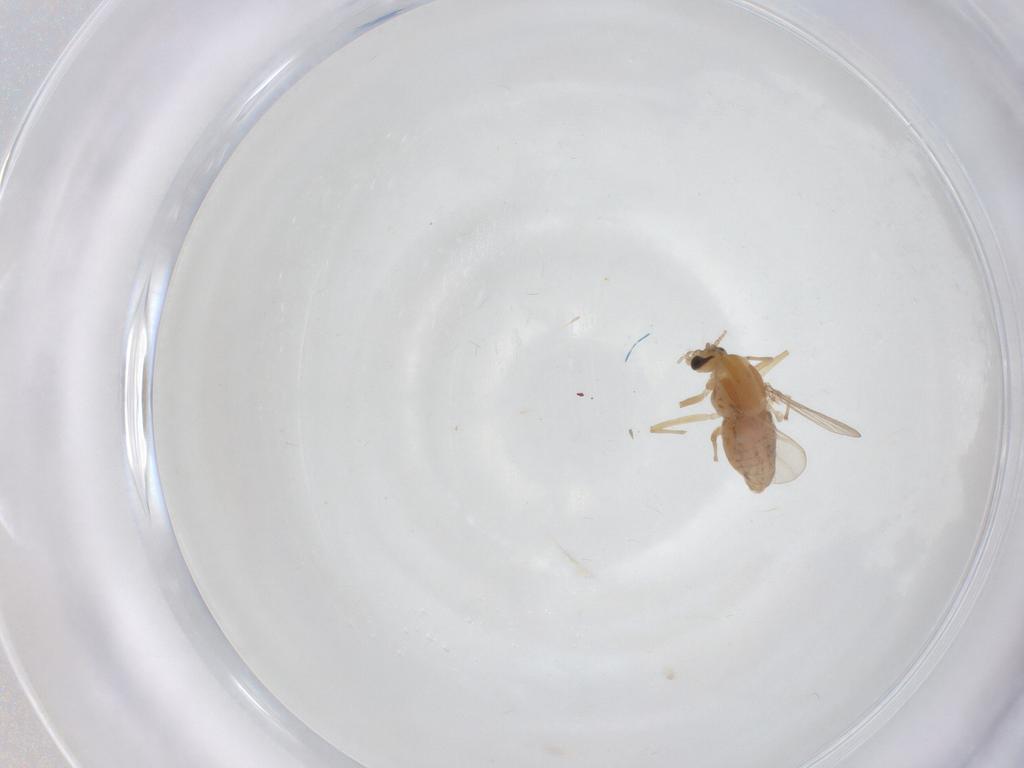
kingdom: Animalia
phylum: Arthropoda
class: Insecta
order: Diptera
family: Chironomidae
